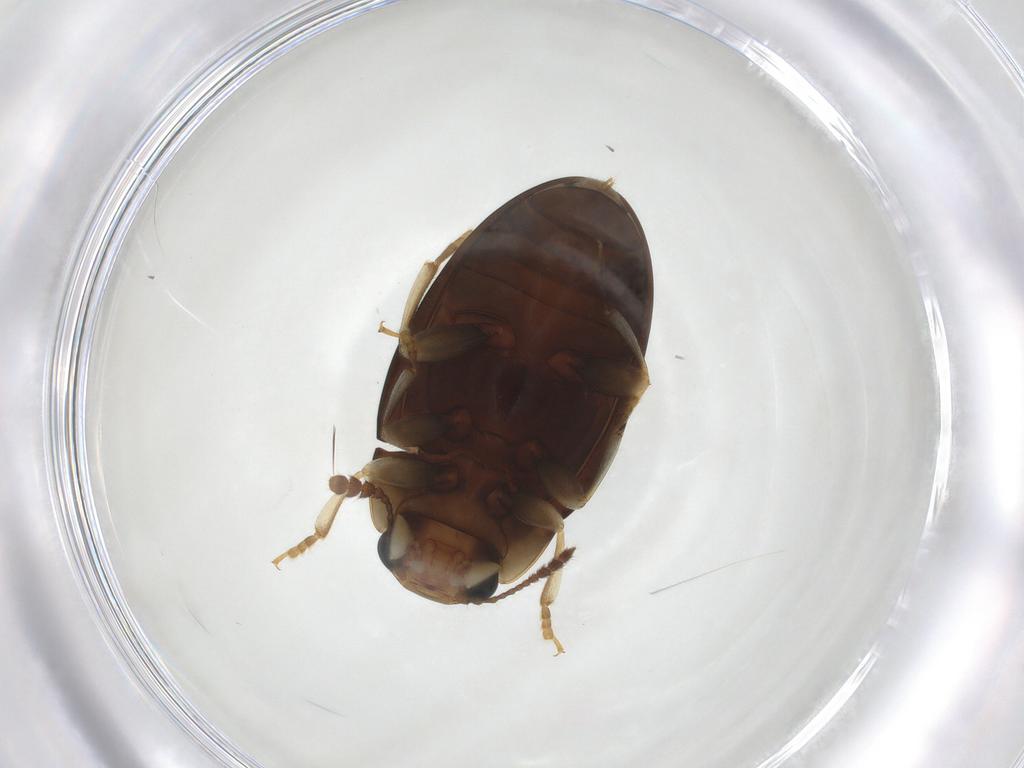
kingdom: Animalia
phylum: Arthropoda
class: Insecta
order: Coleoptera
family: Erotylidae
